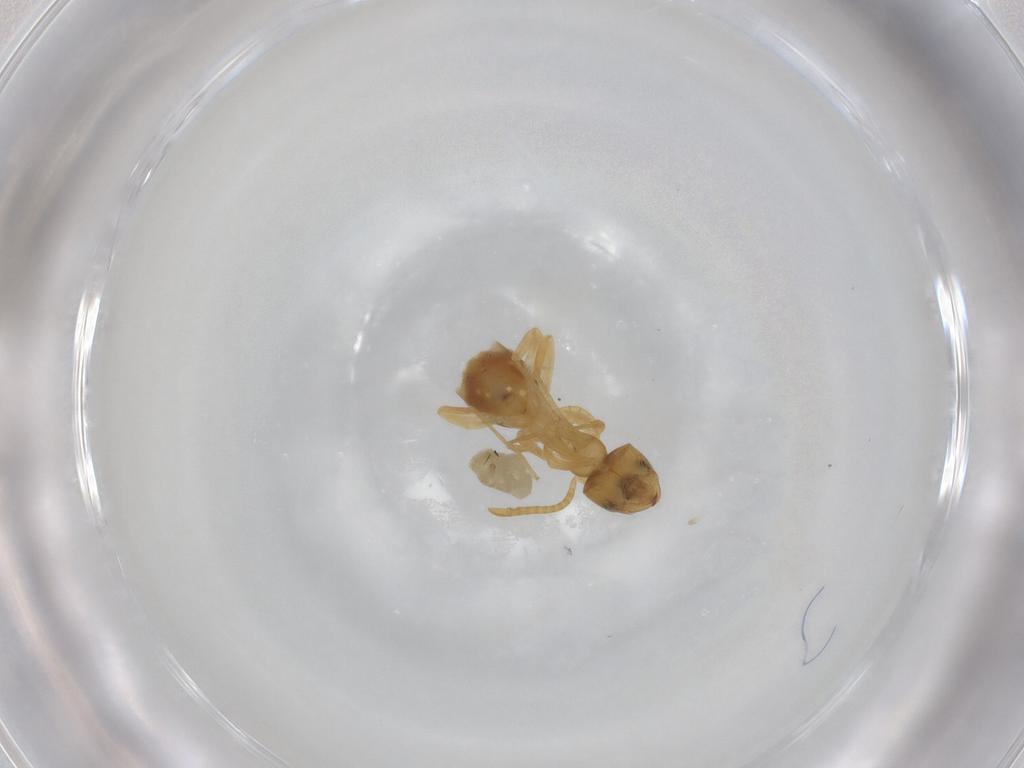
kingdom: Animalia
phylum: Arthropoda
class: Insecta
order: Hymenoptera
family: Formicidae
